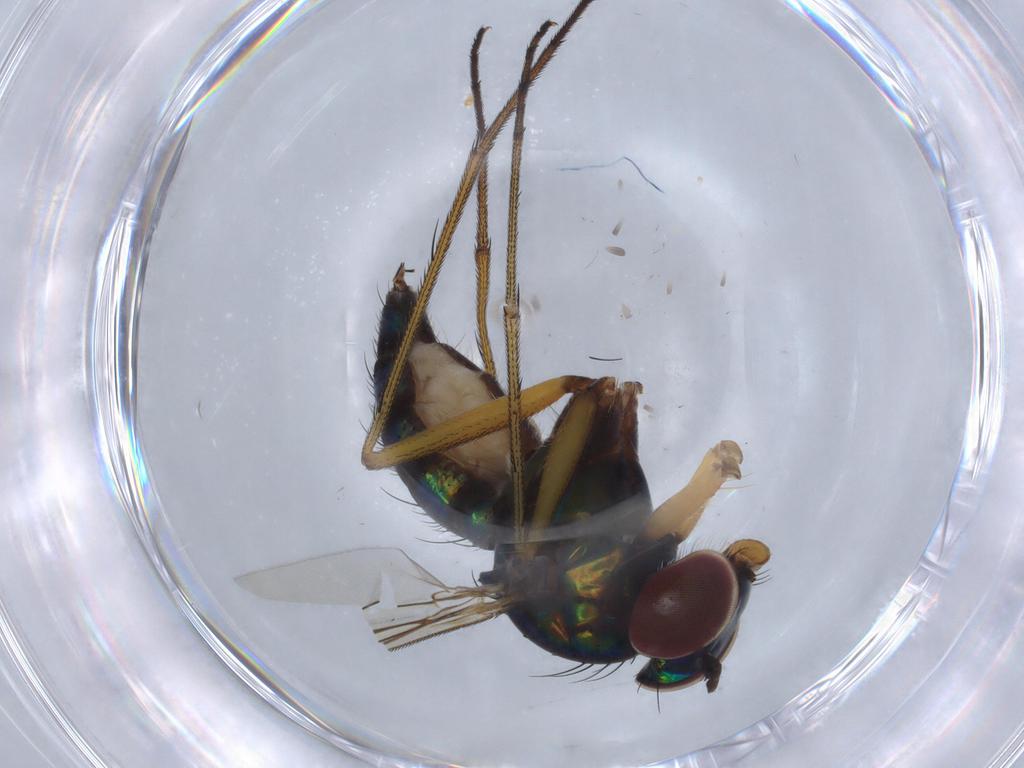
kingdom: Animalia
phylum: Arthropoda
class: Insecta
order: Diptera
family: Dolichopodidae
